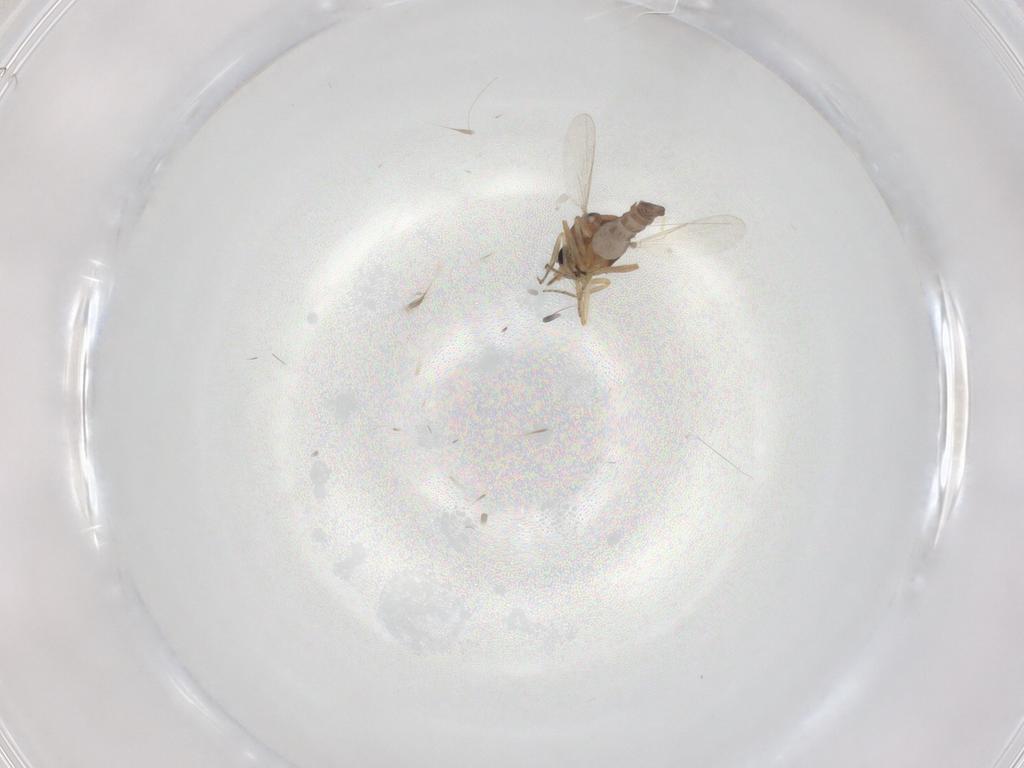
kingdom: Animalia
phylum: Arthropoda
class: Insecta
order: Diptera
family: Ceratopogonidae
